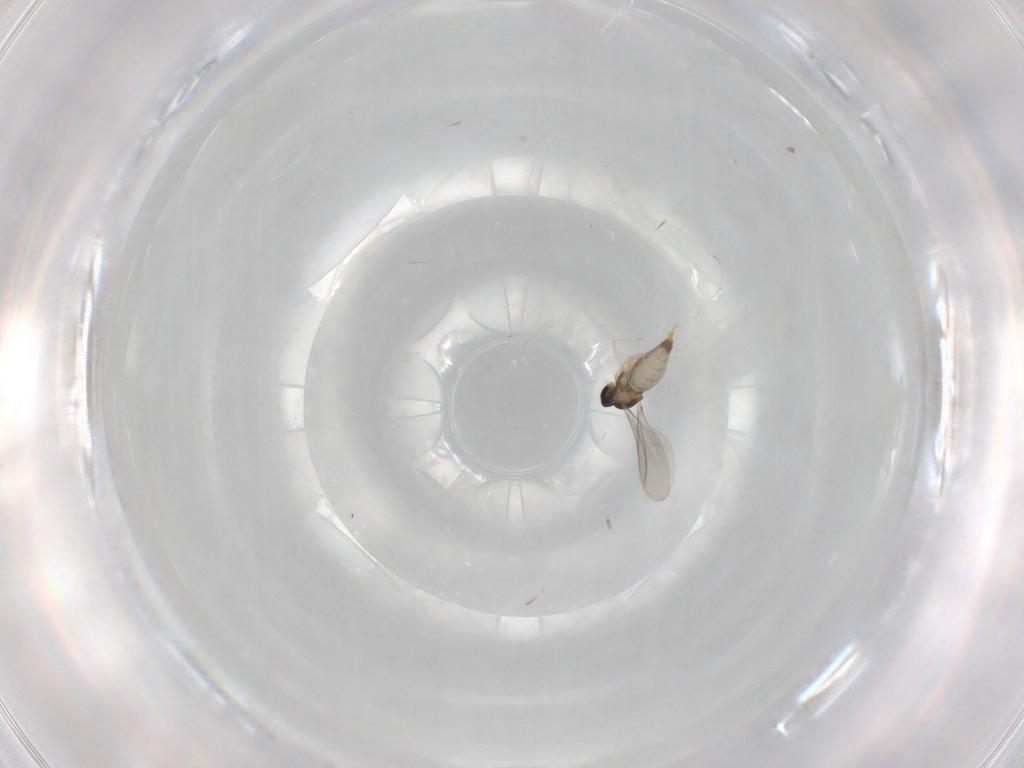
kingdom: Animalia
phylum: Arthropoda
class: Insecta
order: Diptera
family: Cecidomyiidae
